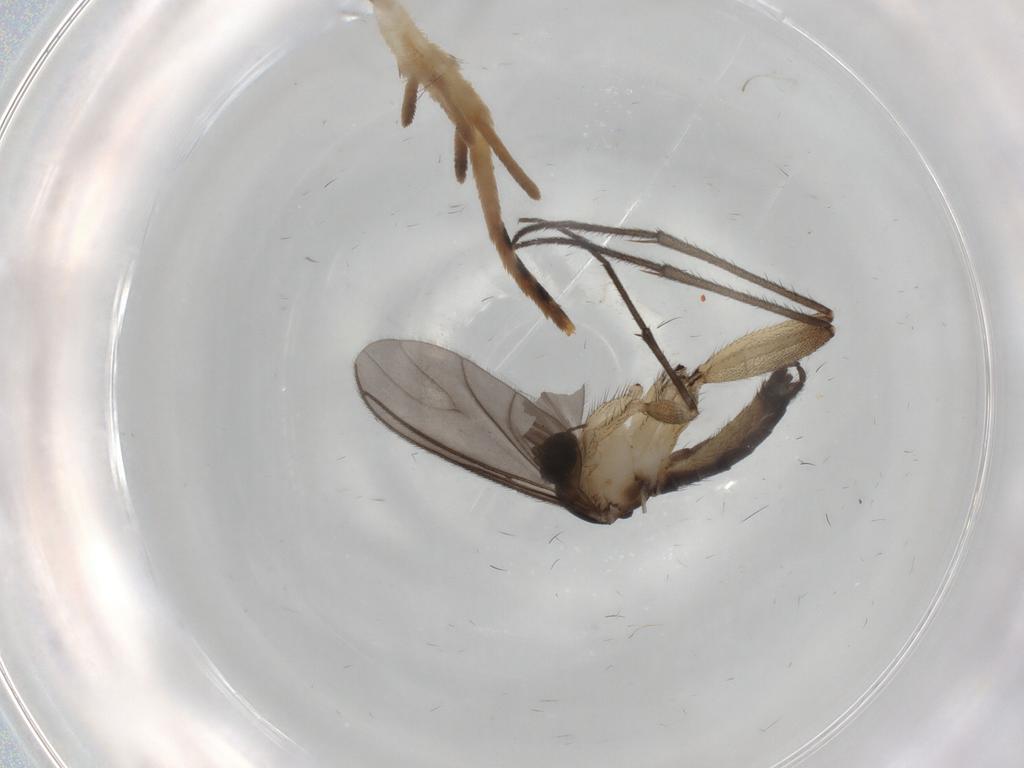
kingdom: Animalia
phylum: Arthropoda
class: Insecta
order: Diptera
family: Sciaridae
